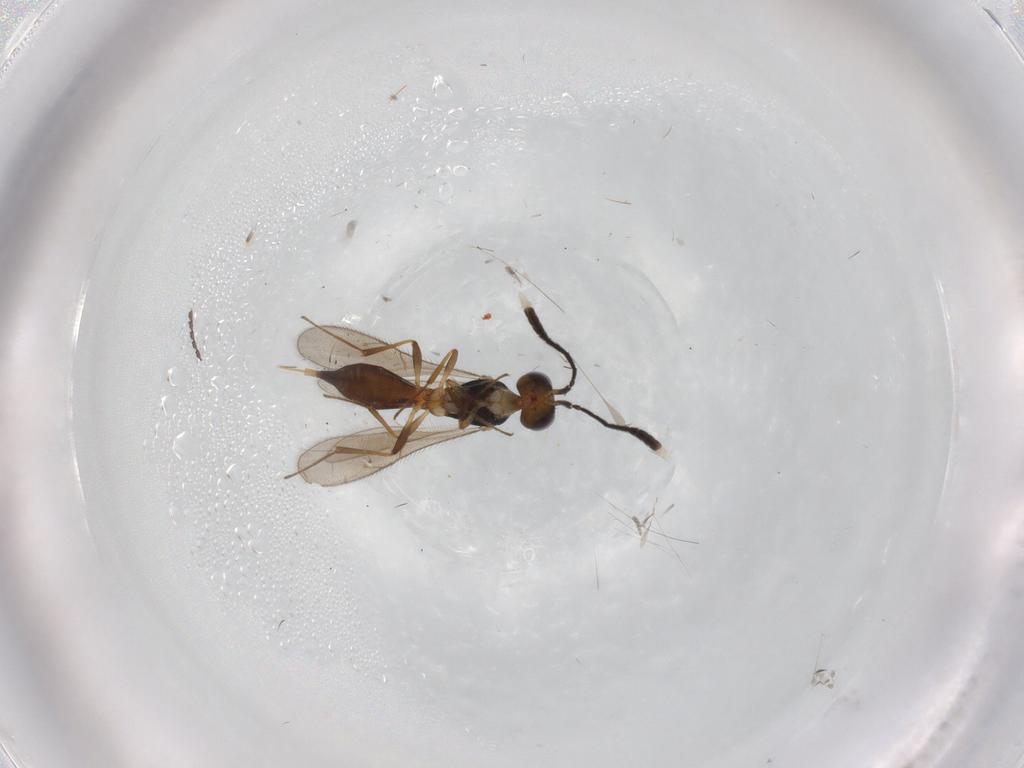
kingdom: Animalia
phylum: Arthropoda
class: Insecta
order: Hymenoptera
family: Scelionidae
